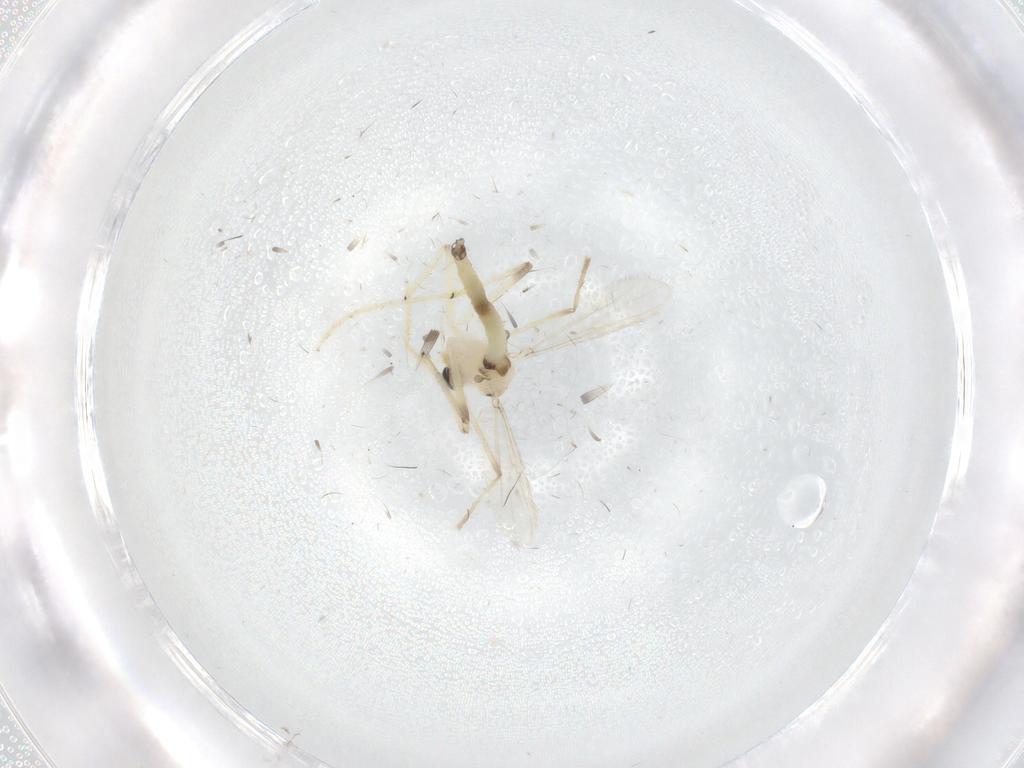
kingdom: Animalia
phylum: Arthropoda
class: Insecta
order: Diptera
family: Chironomidae
